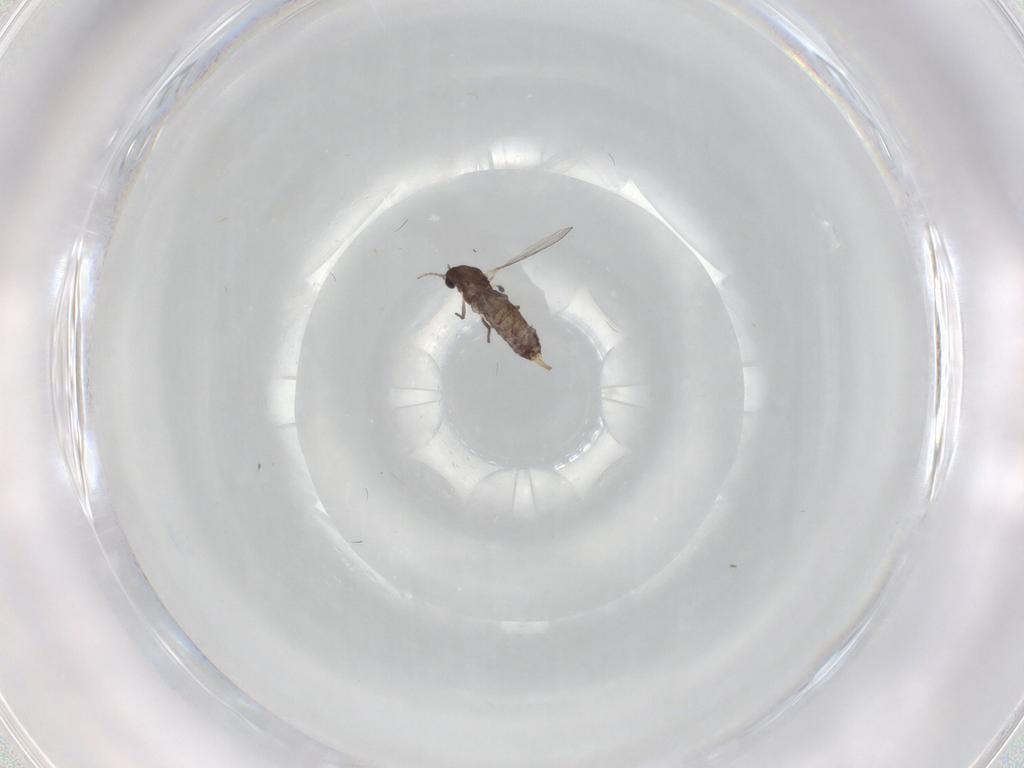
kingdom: Animalia
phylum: Arthropoda
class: Insecta
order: Diptera
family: Chironomidae
